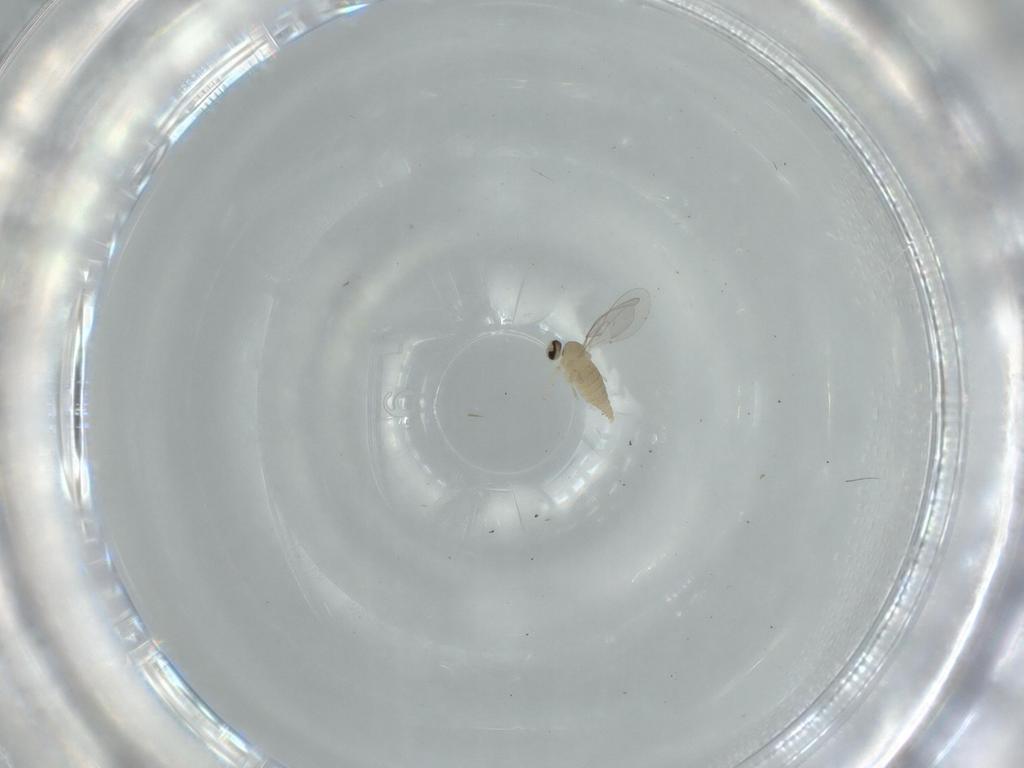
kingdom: Animalia
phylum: Arthropoda
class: Insecta
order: Diptera
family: Cecidomyiidae
